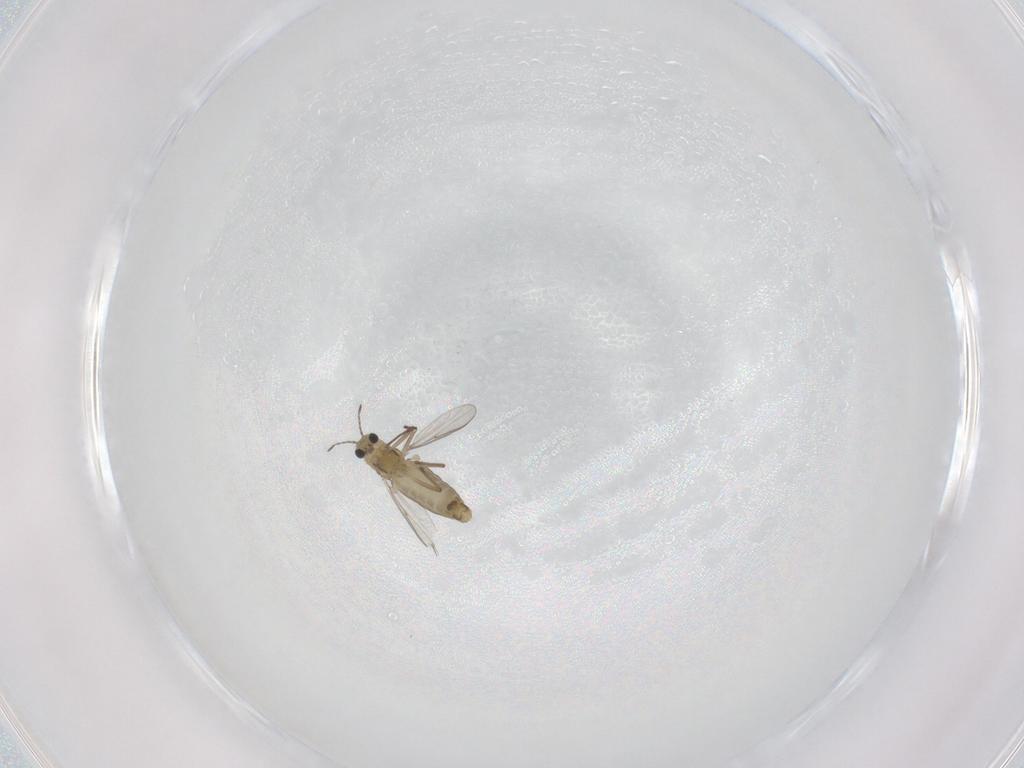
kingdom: Animalia
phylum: Arthropoda
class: Insecta
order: Diptera
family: Chironomidae
